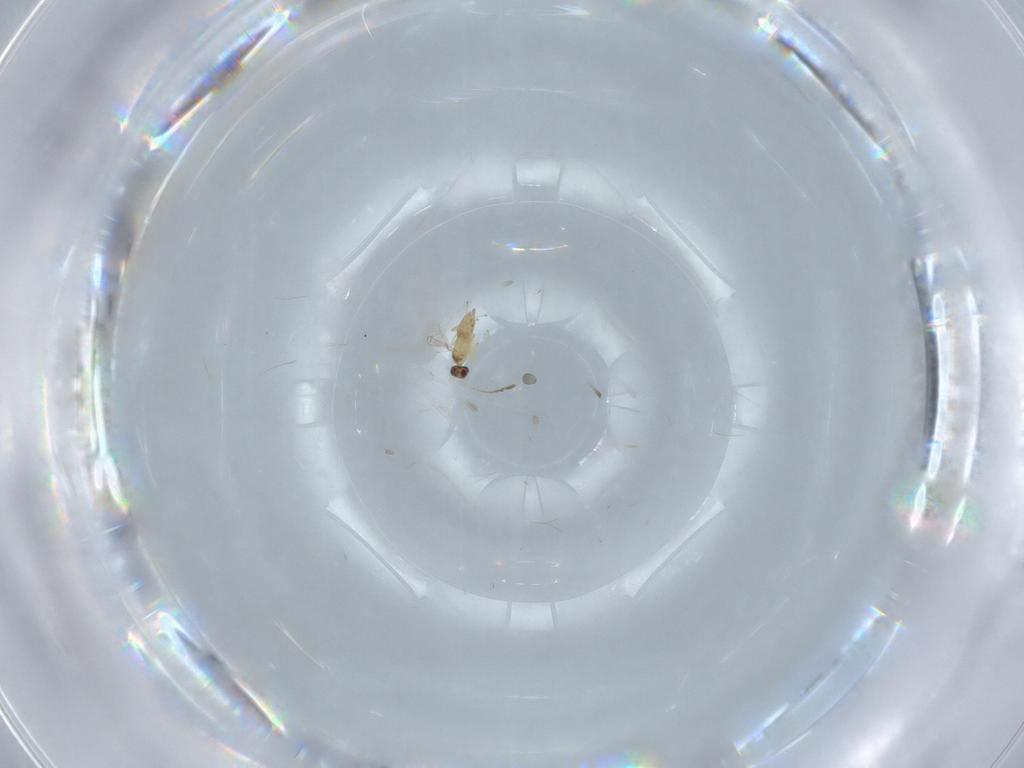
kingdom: Animalia
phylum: Arthropoda
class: Insecta
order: Hymenoptera
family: Mymaridae
